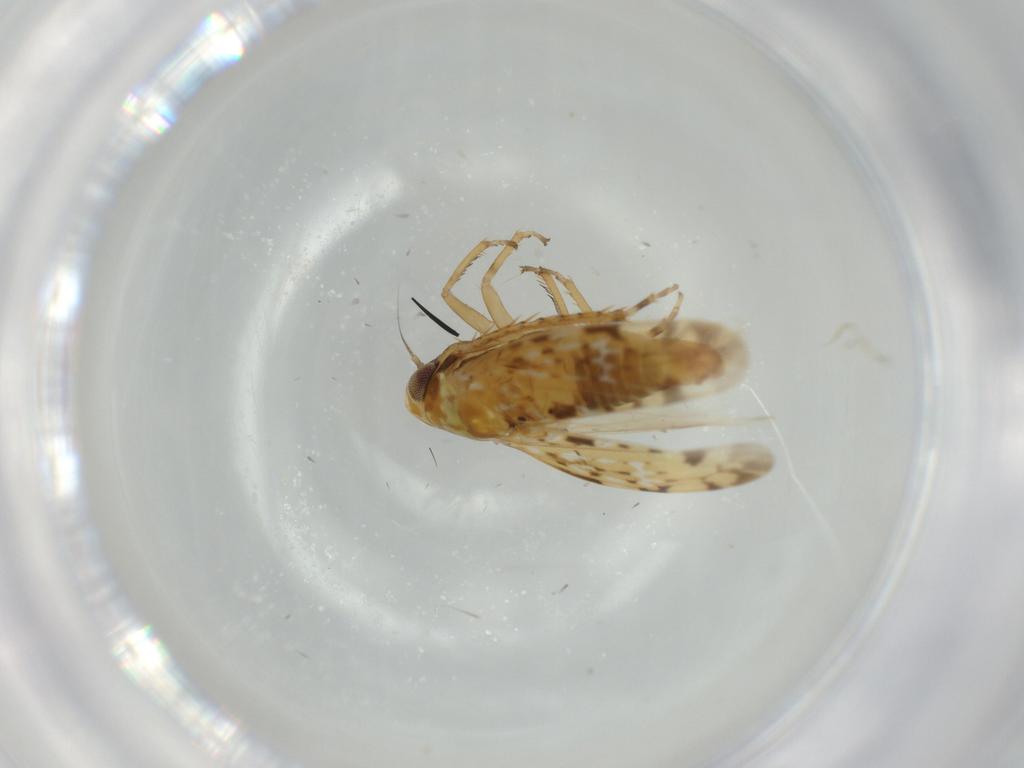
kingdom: Animalia
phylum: Arthropoda
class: Insecta
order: Hemiptera
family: Cicadellidae
